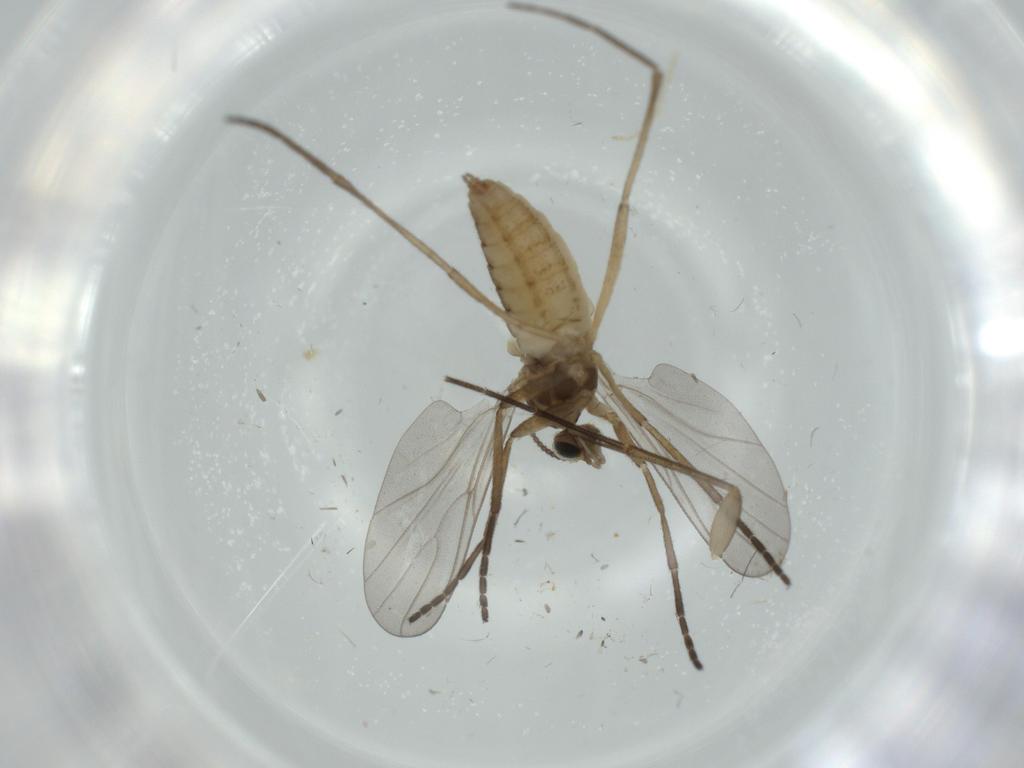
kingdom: Animalia
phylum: Arthropoda
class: Insecta
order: Diptera
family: Cecidomyiidae
